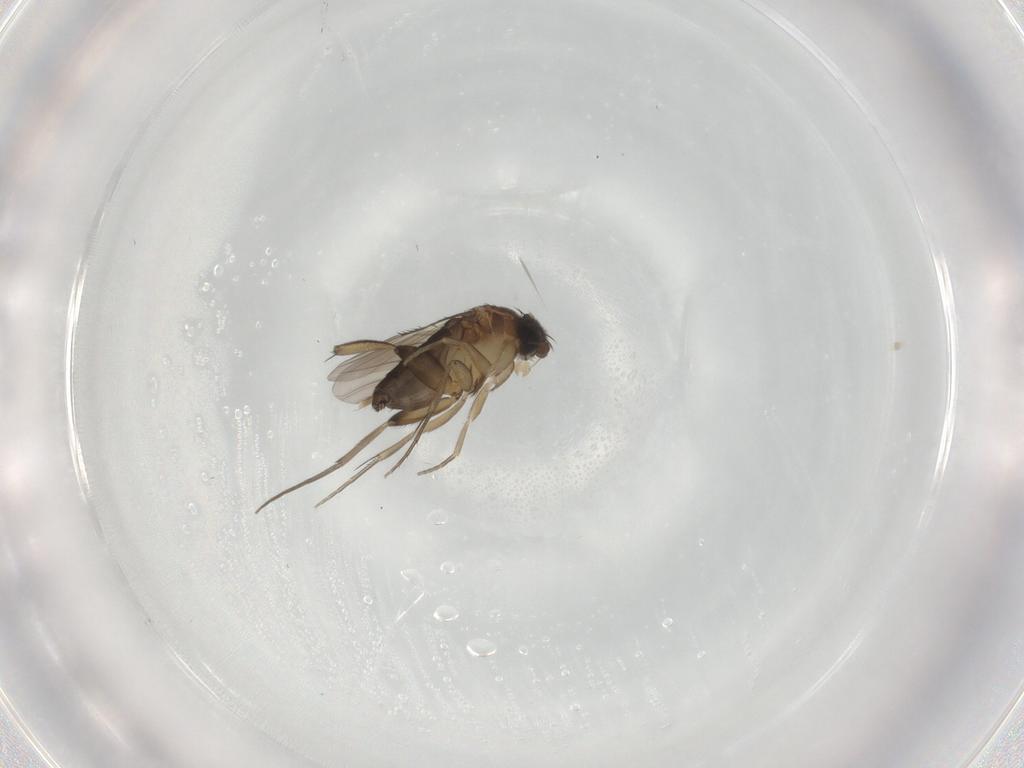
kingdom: Animalia
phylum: Arthropoda
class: Insecta
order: Diptera
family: Phoridae
